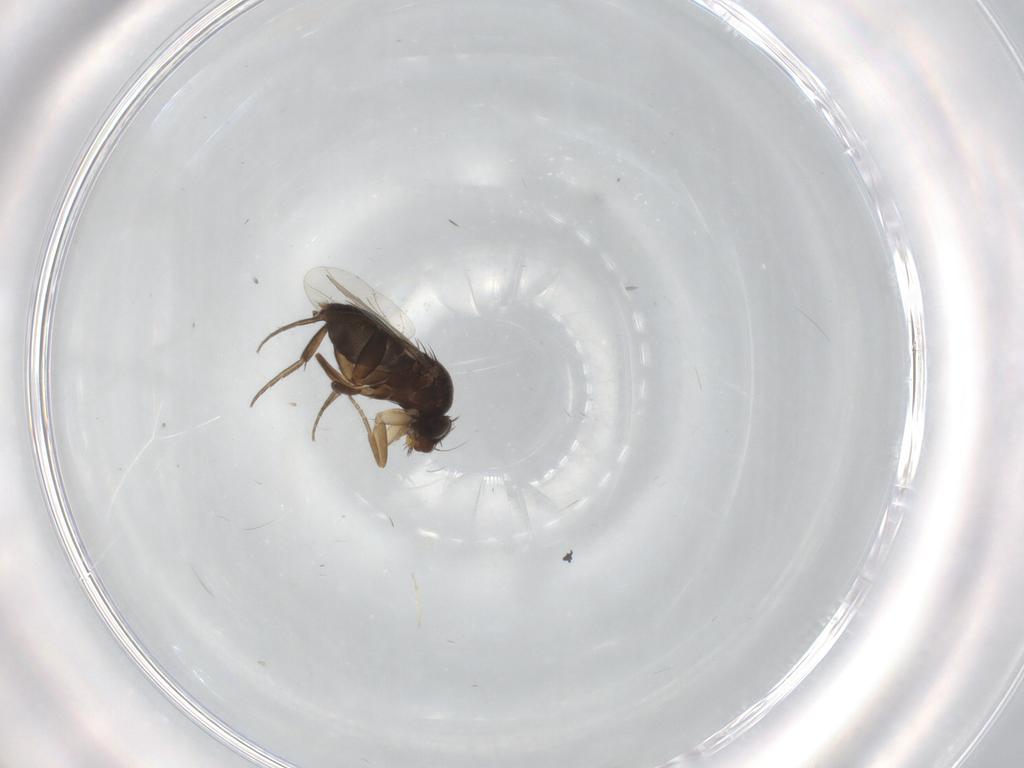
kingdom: Animalia
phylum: Arthropoda
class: Insecta
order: Diptera
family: Phoridae
